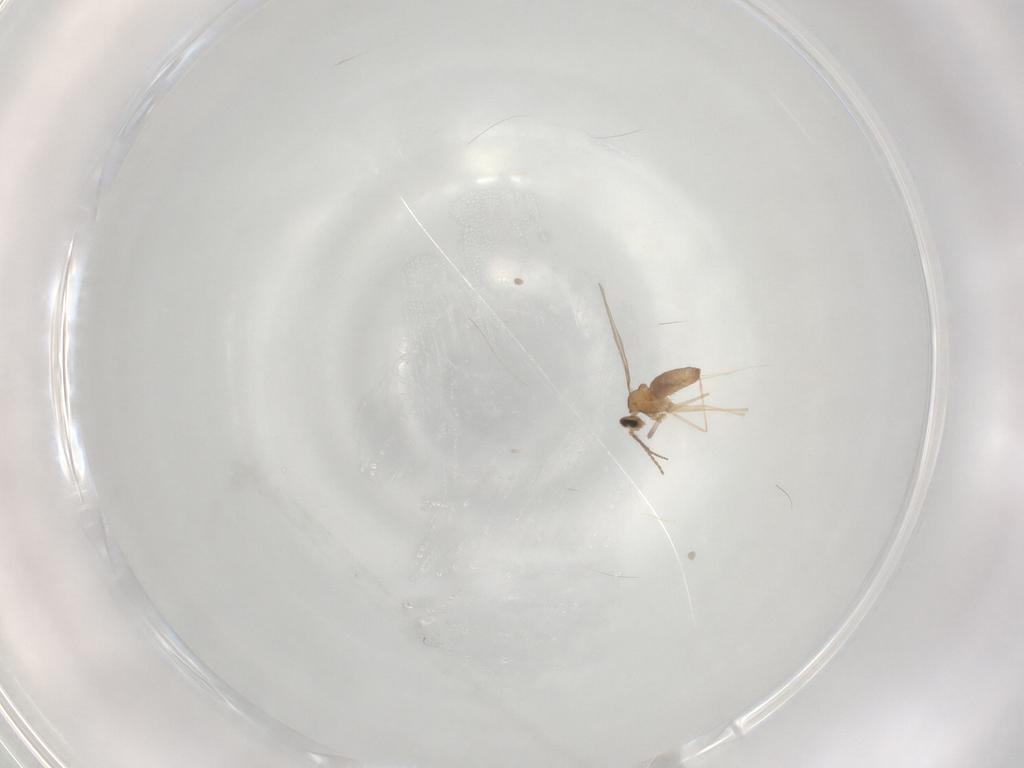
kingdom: Animalia
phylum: Arthropoda
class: Insecta
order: Diptera
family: Cecidomyiidae
